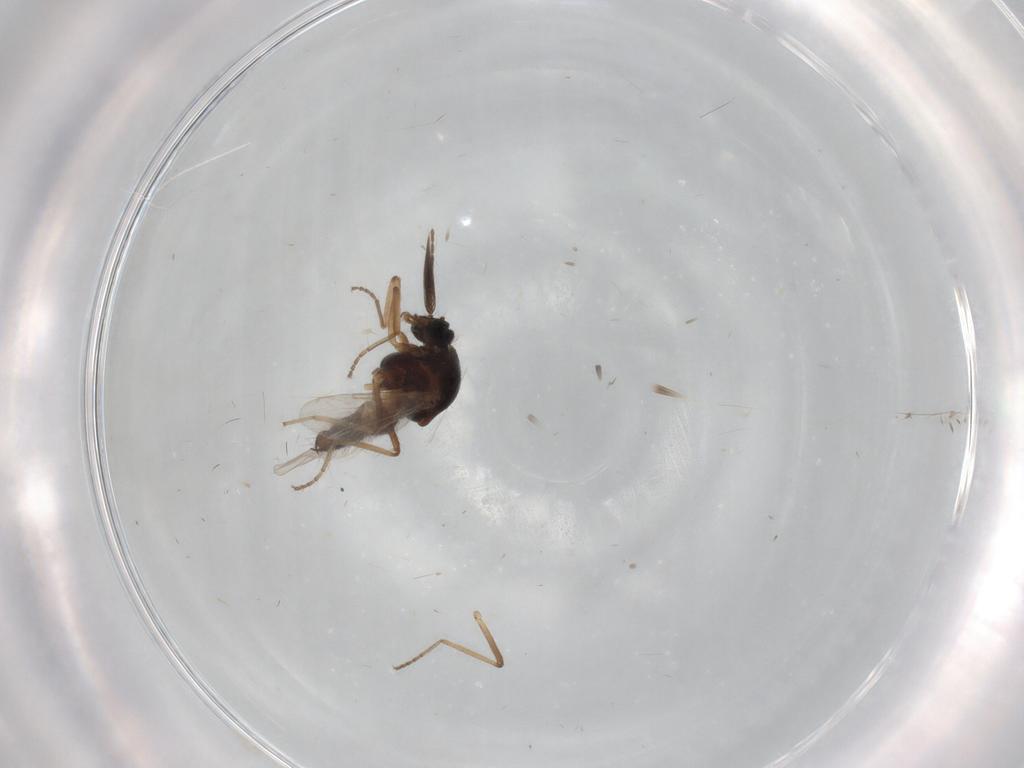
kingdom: Animalia
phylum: Arthropoda
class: Insecta
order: Diptera
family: Ceratopogonidae
